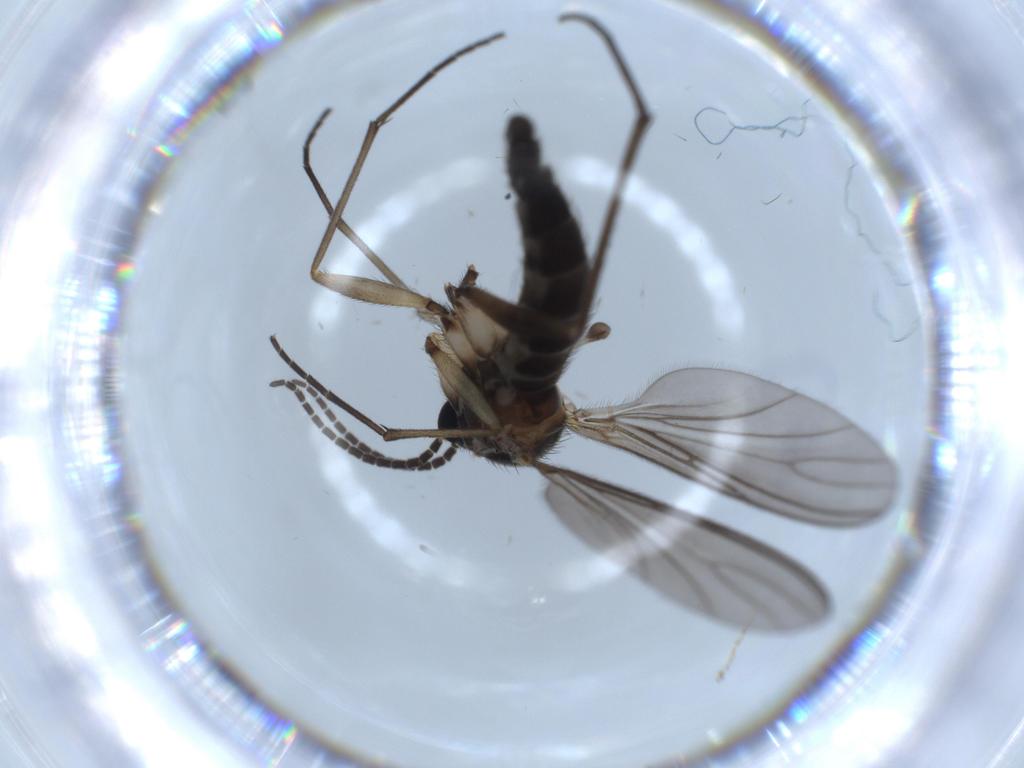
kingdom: Animalia
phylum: Arthropoda
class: Insecta
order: Diptera
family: Sciaridae
